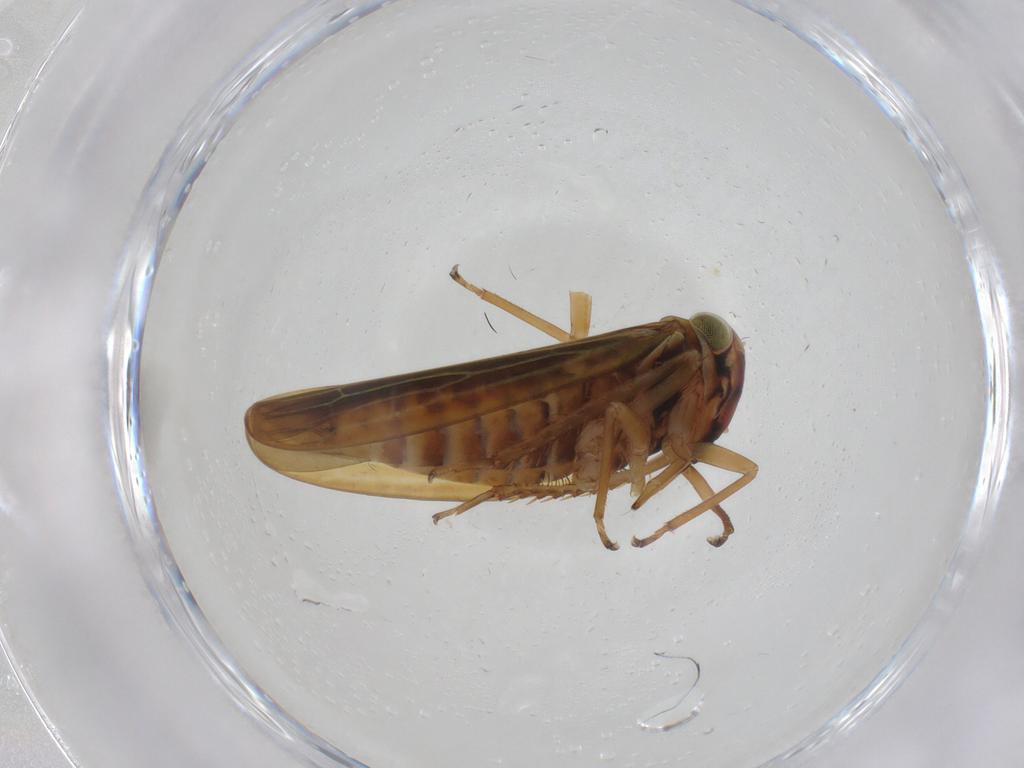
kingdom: Animalia
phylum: Arthropoda
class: Insecta
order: Hemiptera
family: Cicadellidae
